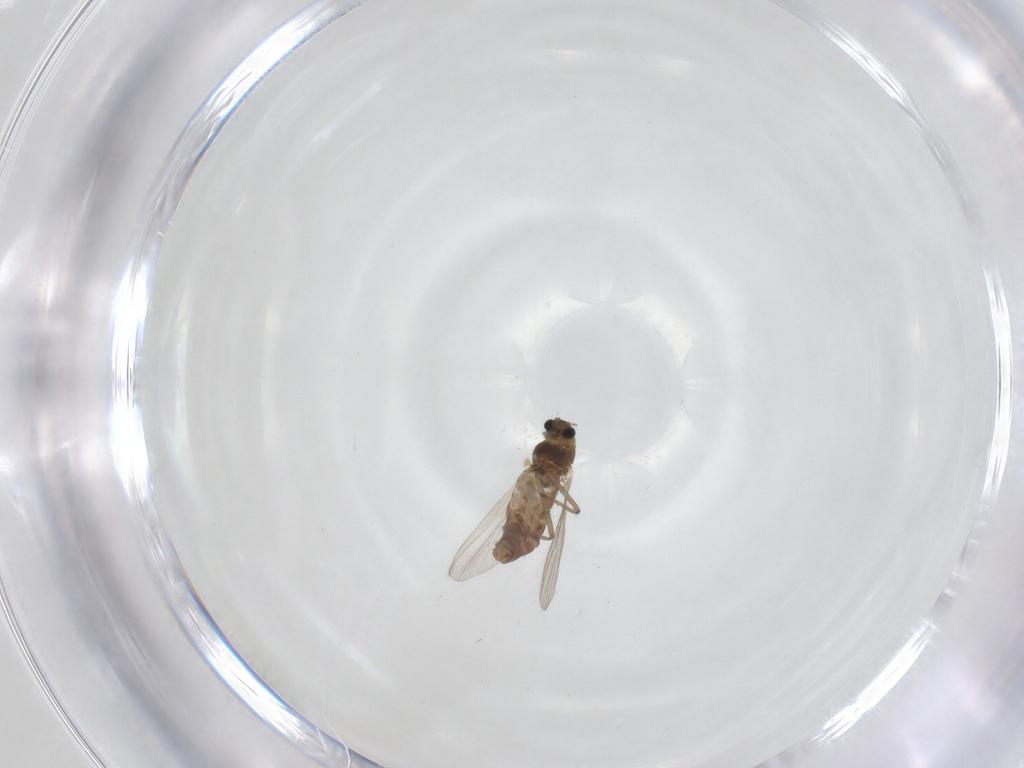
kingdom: Animalia
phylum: Arthropoda
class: Insecta
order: Diptera
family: Chironomidae
